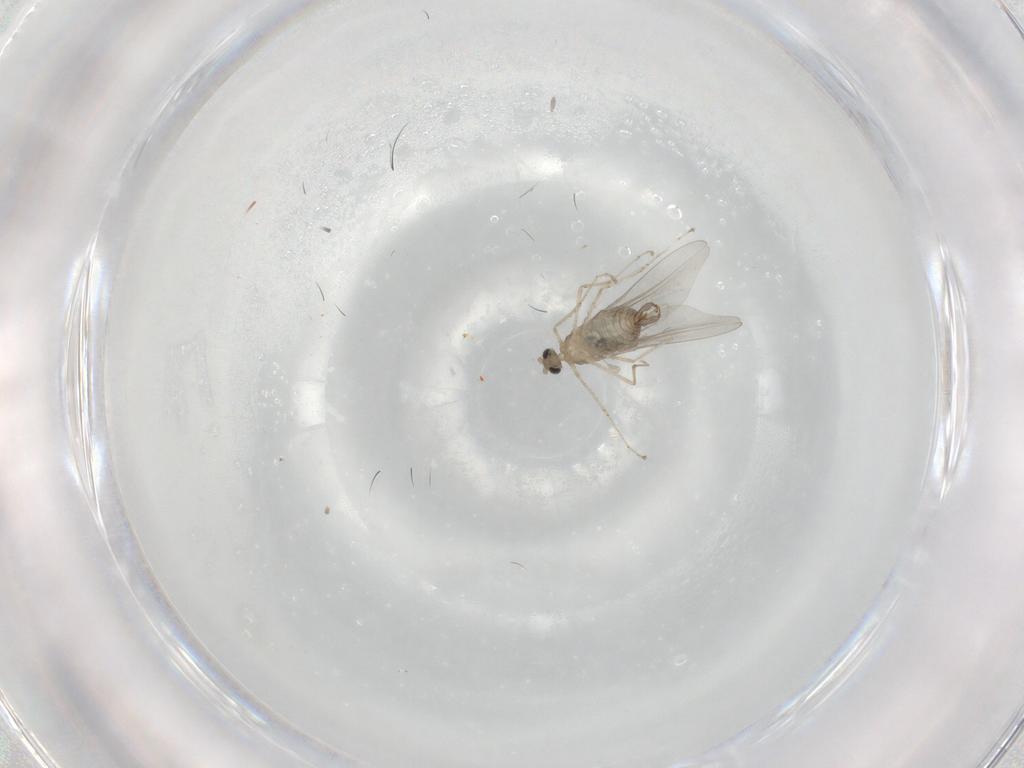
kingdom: Animalia
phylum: Arthropoda
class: Insecta
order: Diptera
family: Cecidomyiidae
